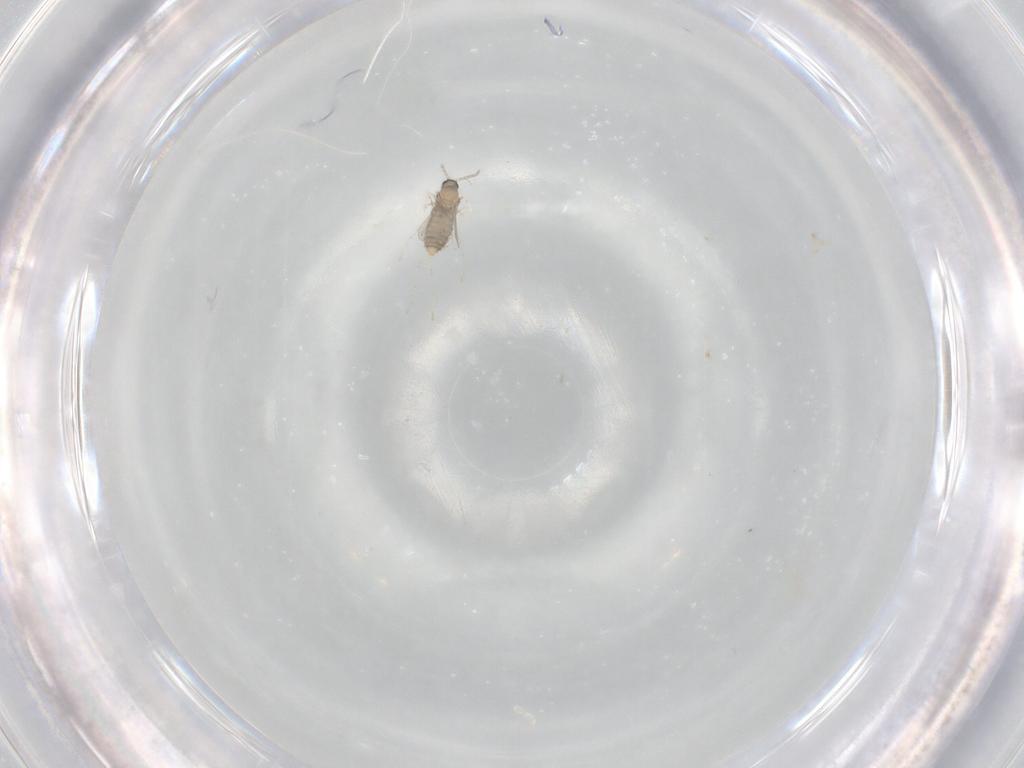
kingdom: Animalia
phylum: Arthropoda
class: Insecta
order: Diptera
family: Cecidomyiidae
